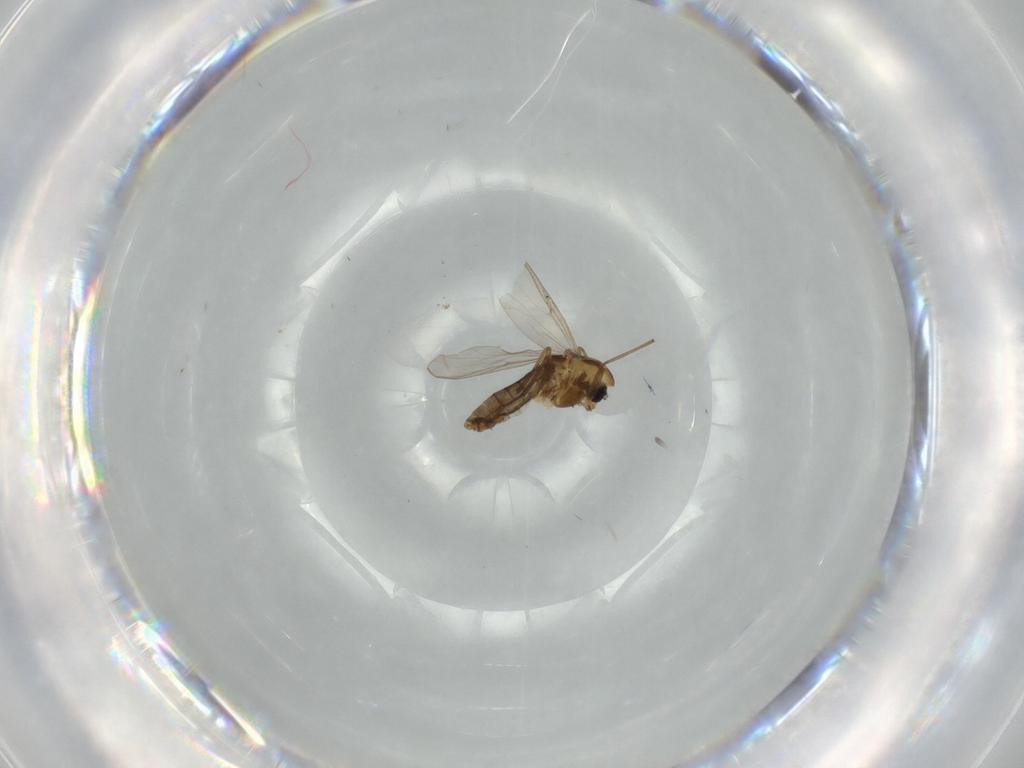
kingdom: Animalia
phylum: Arthropoda
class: Insecta
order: Diptera
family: Chironomidae
